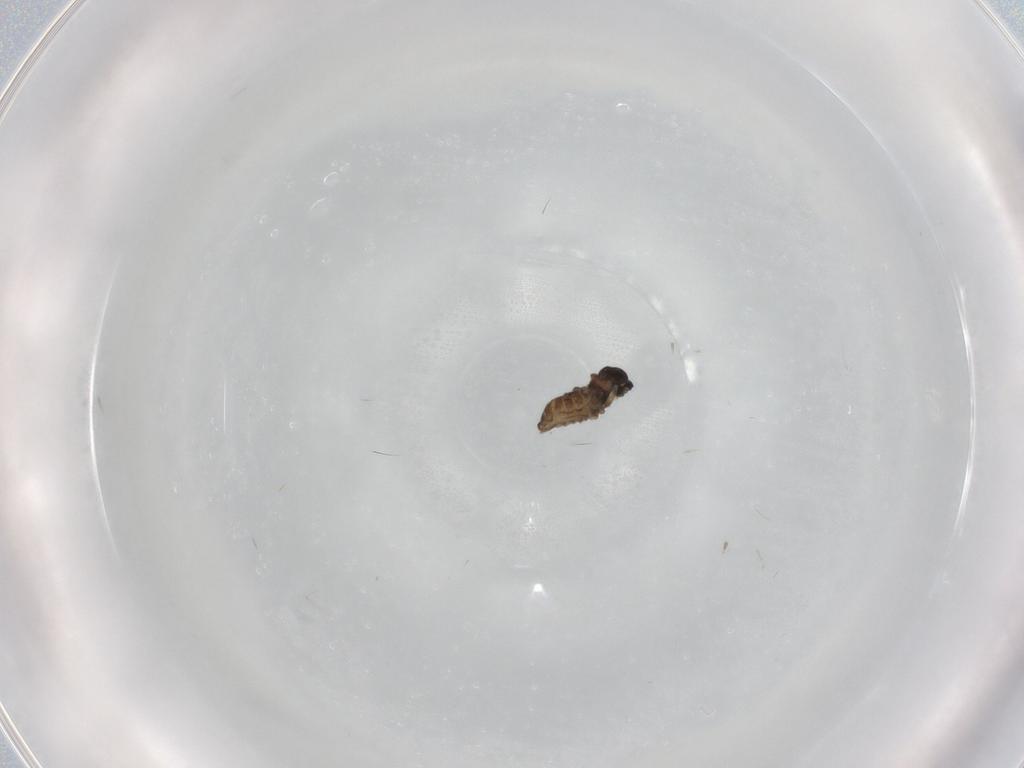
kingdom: Animalia
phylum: Arthropoda
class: Insecta
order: Diptera
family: Cecidomyiidae
